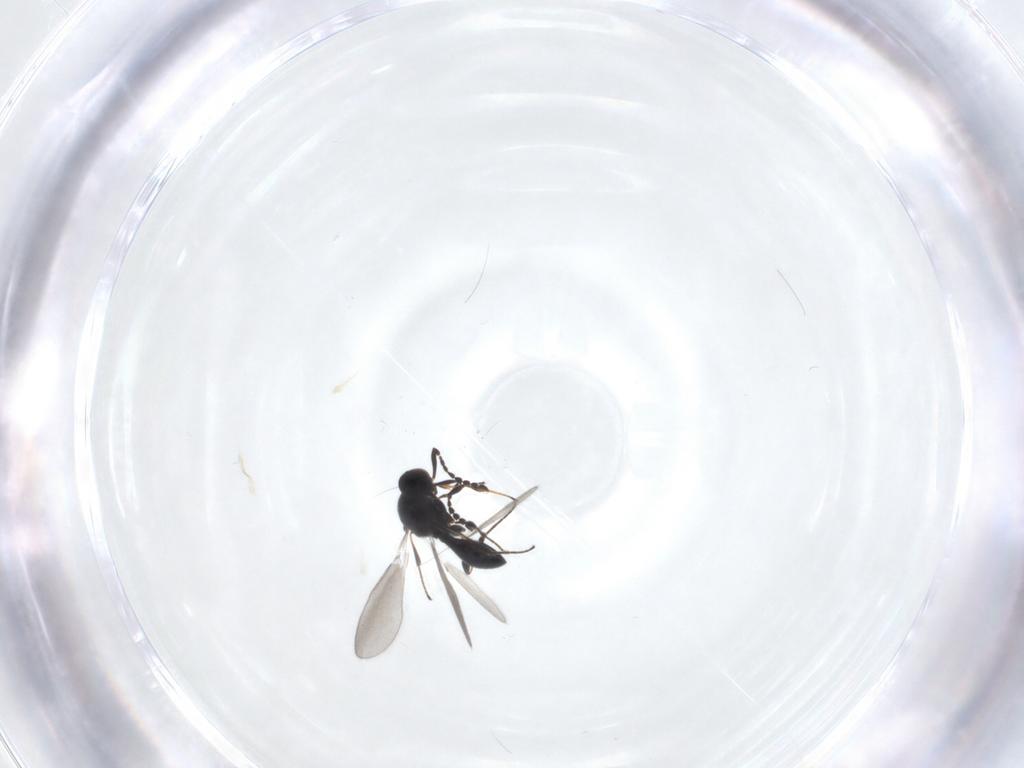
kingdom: Animalia
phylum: Arthropoda
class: Insecta
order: Hymenoptera
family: Platygastridae
